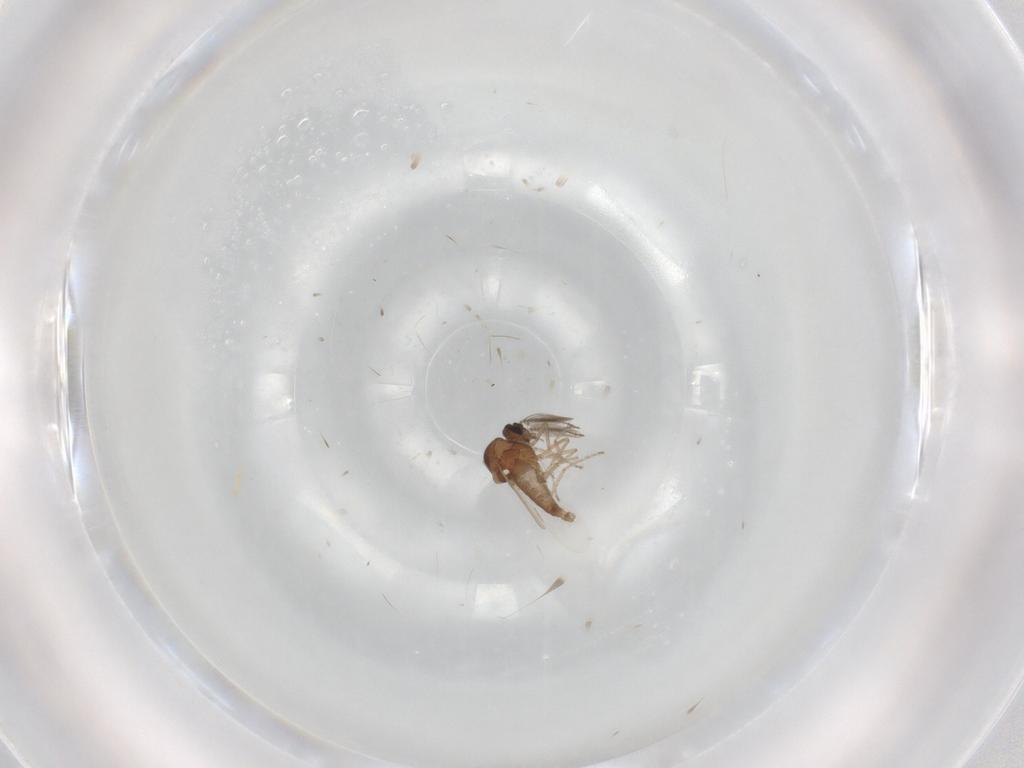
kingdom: Animalia
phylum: Arthropoda
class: Insecta
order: Diptera
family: Ceratopogonidae
